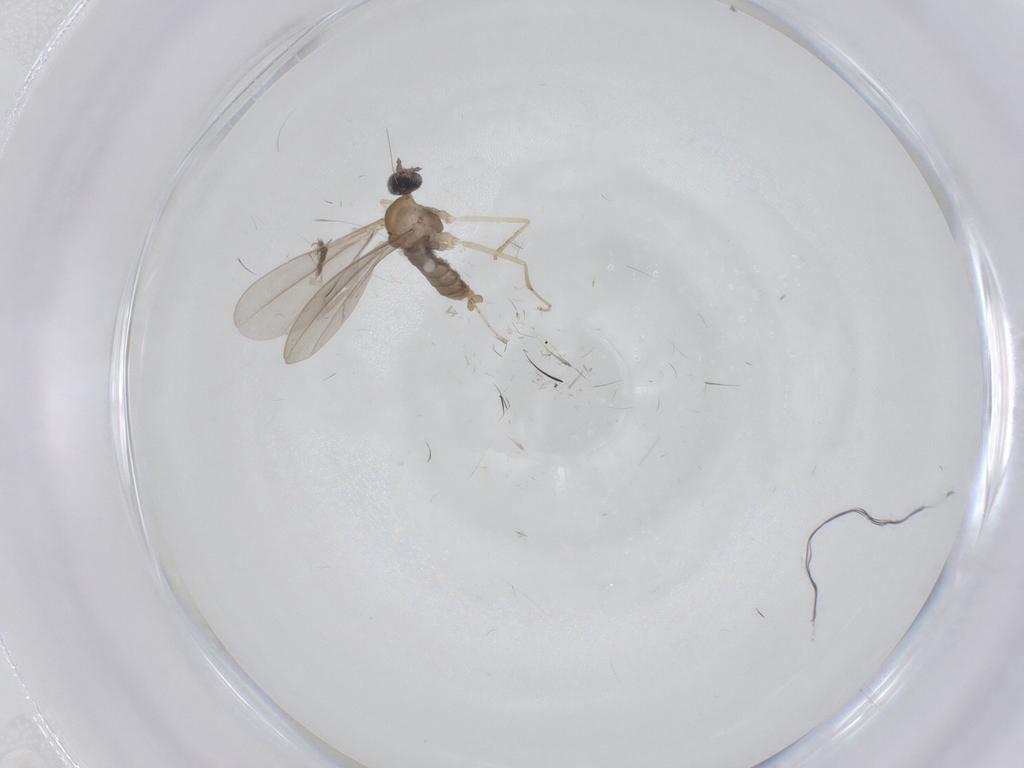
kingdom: Animalia
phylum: Arthropoda
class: Insecta
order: Diptera
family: Cecidomyiidae
